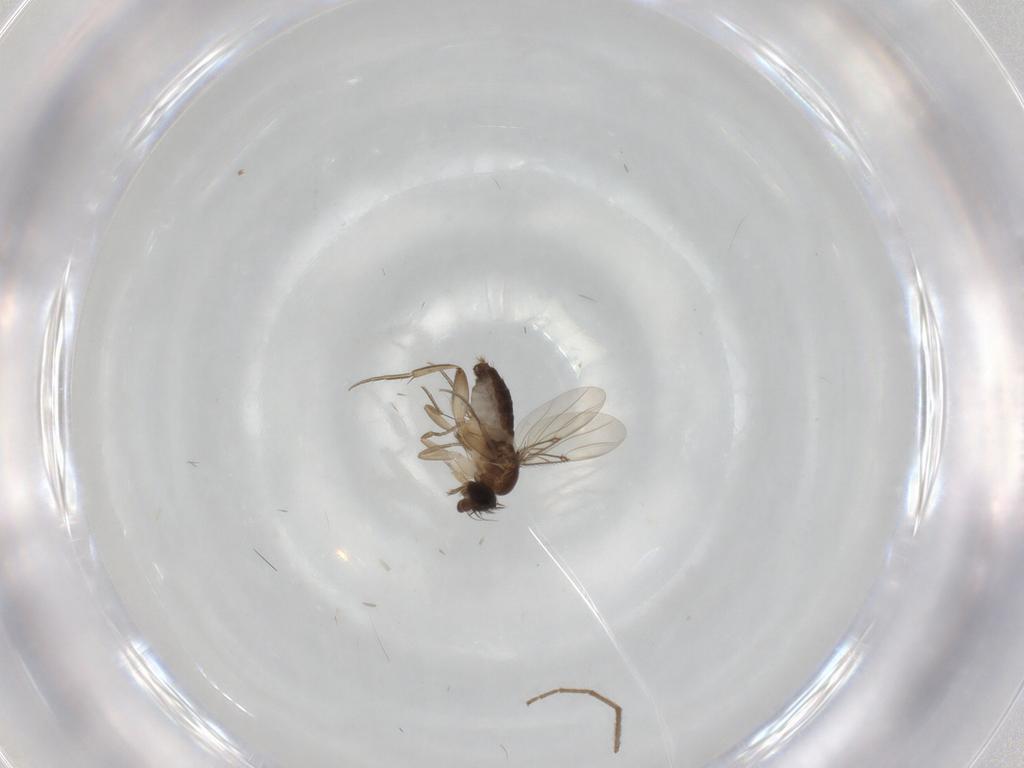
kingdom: Animalia
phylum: Arthropoda
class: Insecta
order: Diptera
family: Phoridae
